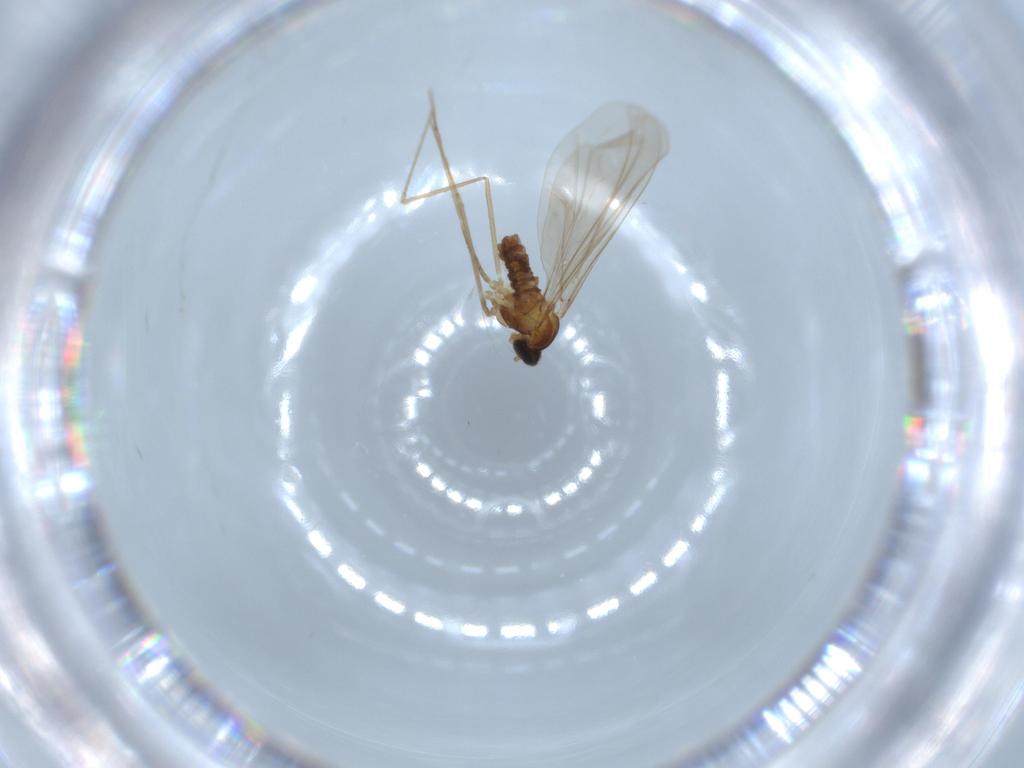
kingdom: Animalia
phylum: Arthropoda
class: Insecta
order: Diptera
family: Cecidomyiidae
